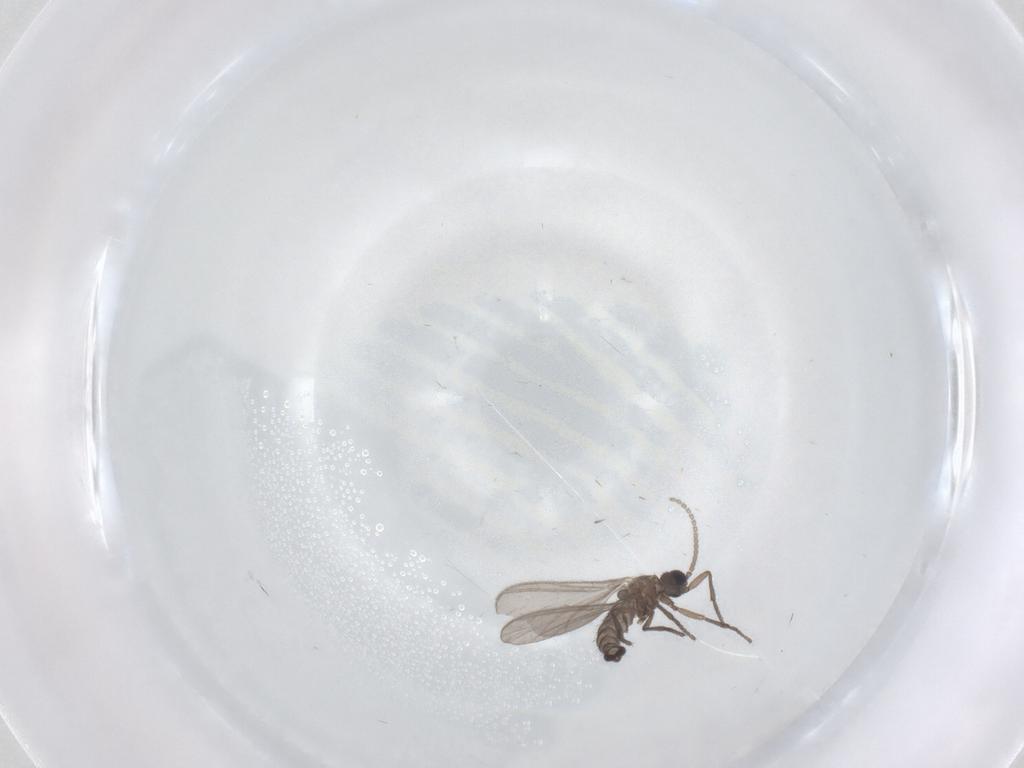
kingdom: Animalia
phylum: Arthropoda
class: Insecta
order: Diptera
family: Sciaridae
